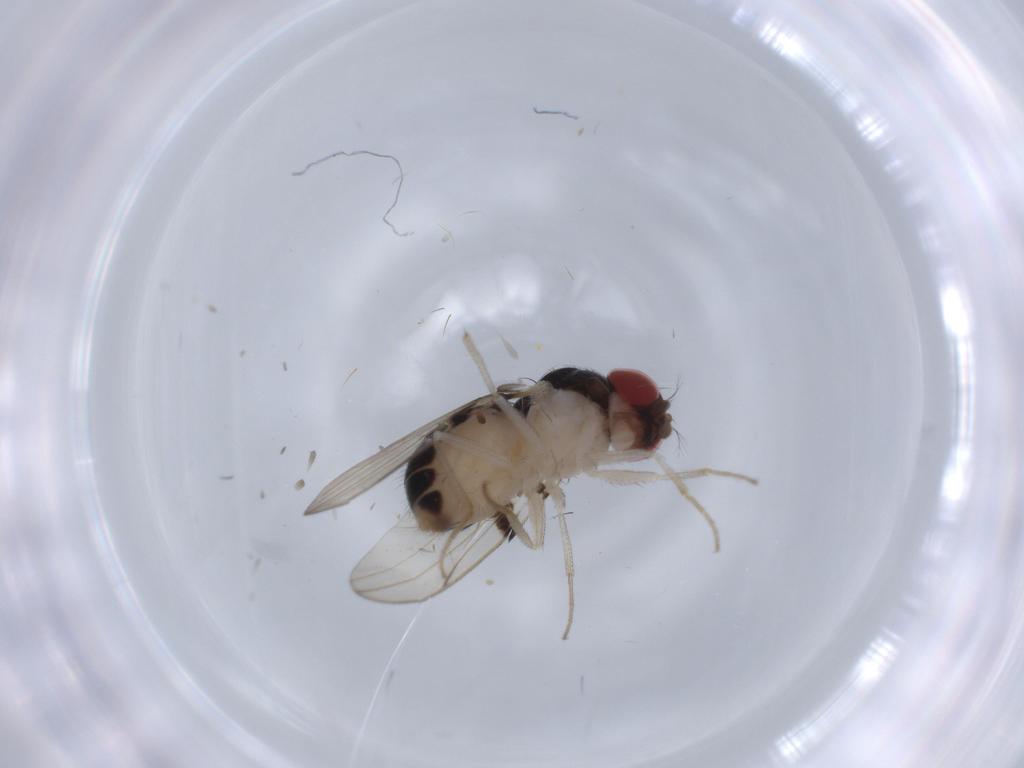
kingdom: Animalia
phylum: Arthropoda
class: Insecta
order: Diptera
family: Drosophilidae
